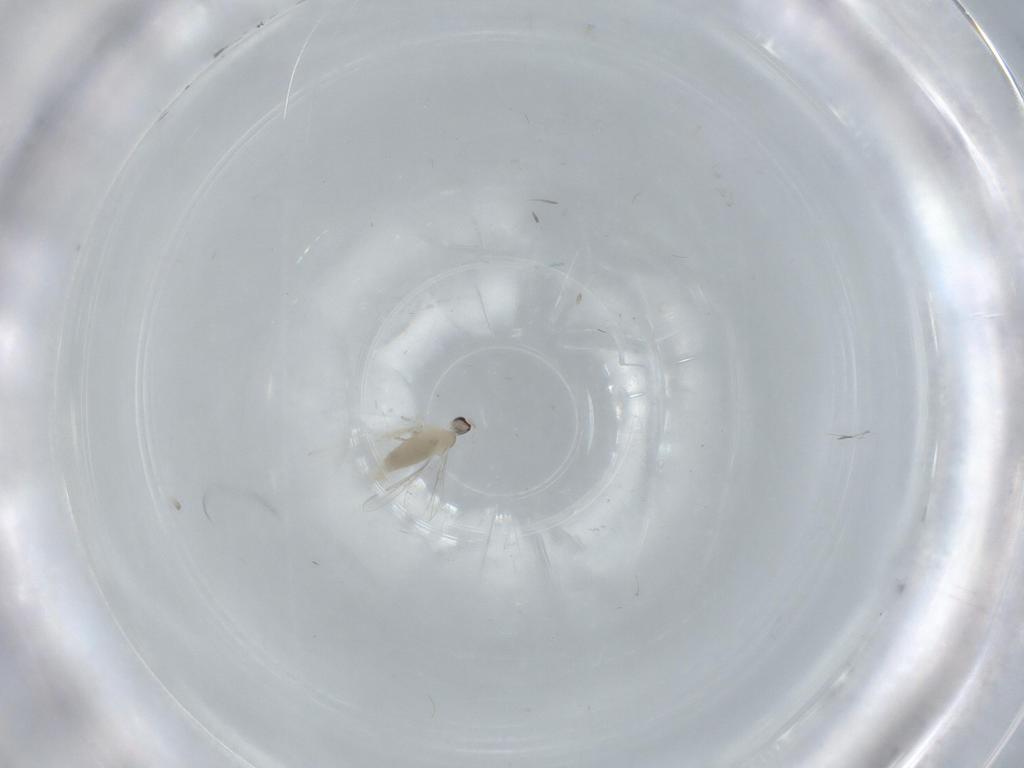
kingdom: Animalia
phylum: Arthropoda
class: Insecta
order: Diptera
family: Cecidomyiidae
